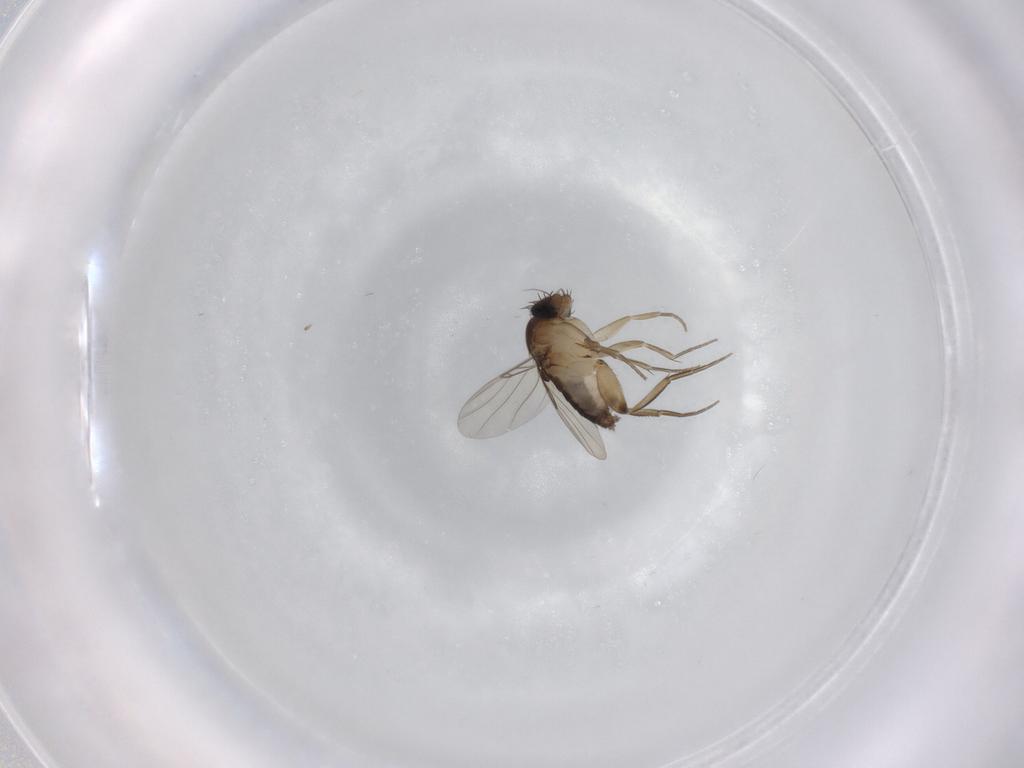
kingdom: Animalia
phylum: Arthropoda
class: Insecta
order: Diptera
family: Phoridae
